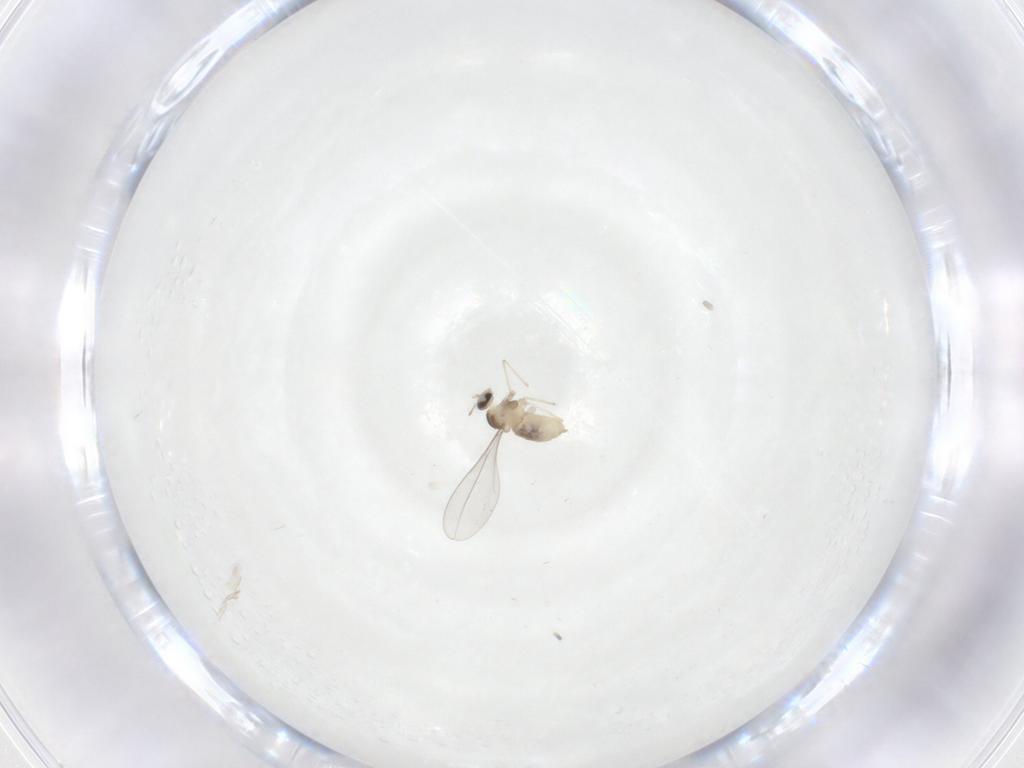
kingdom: Animalia
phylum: Arthropoda
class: Insecta
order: Diptera
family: Cecidomyiidae
